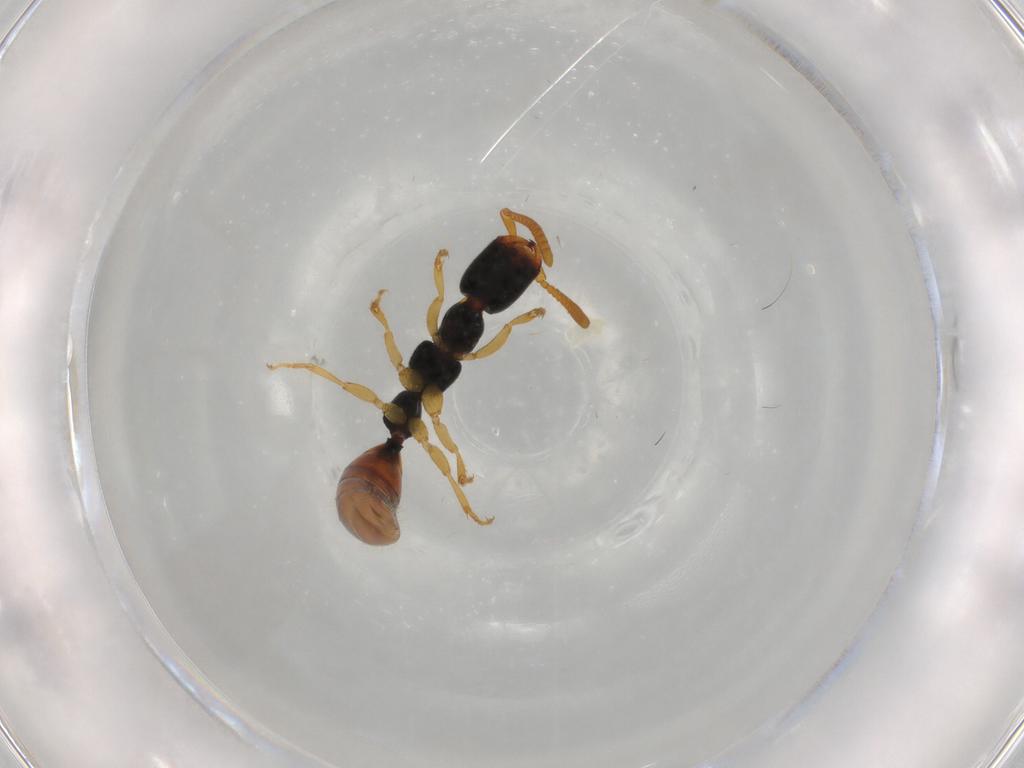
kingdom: Animalia
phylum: Arthropoda
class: Insecta
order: Hymenoptera
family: Bethylidae
